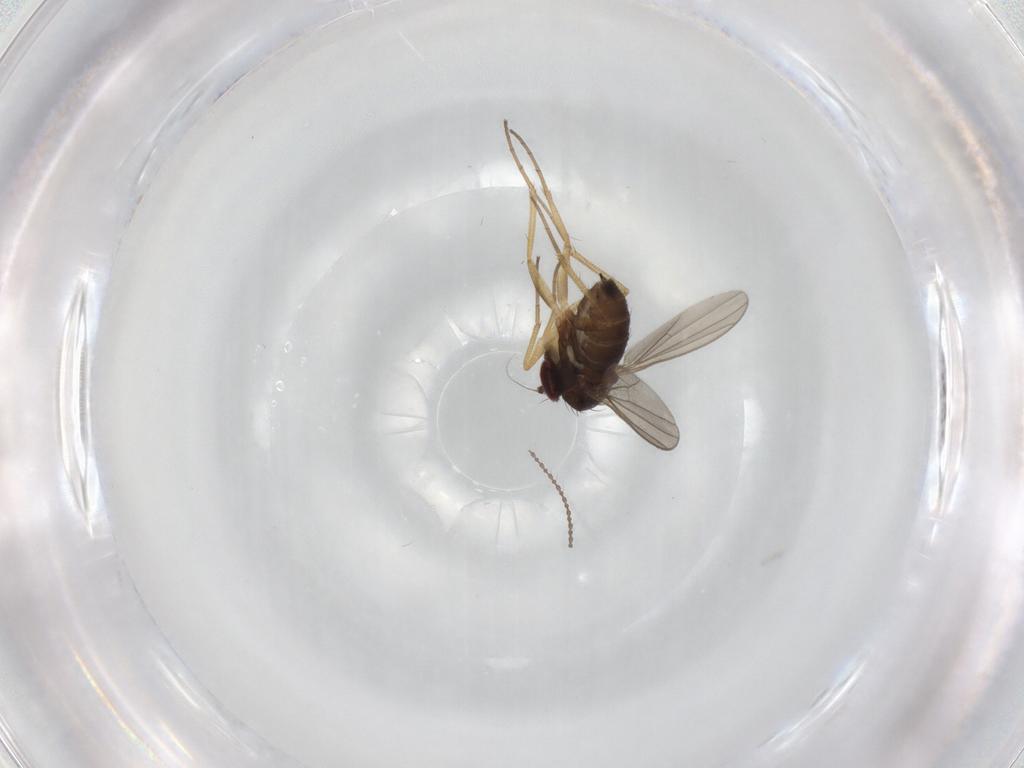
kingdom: Animalia
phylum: Arthropoda
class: Insecta
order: Diptera
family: Dolichopodidae
